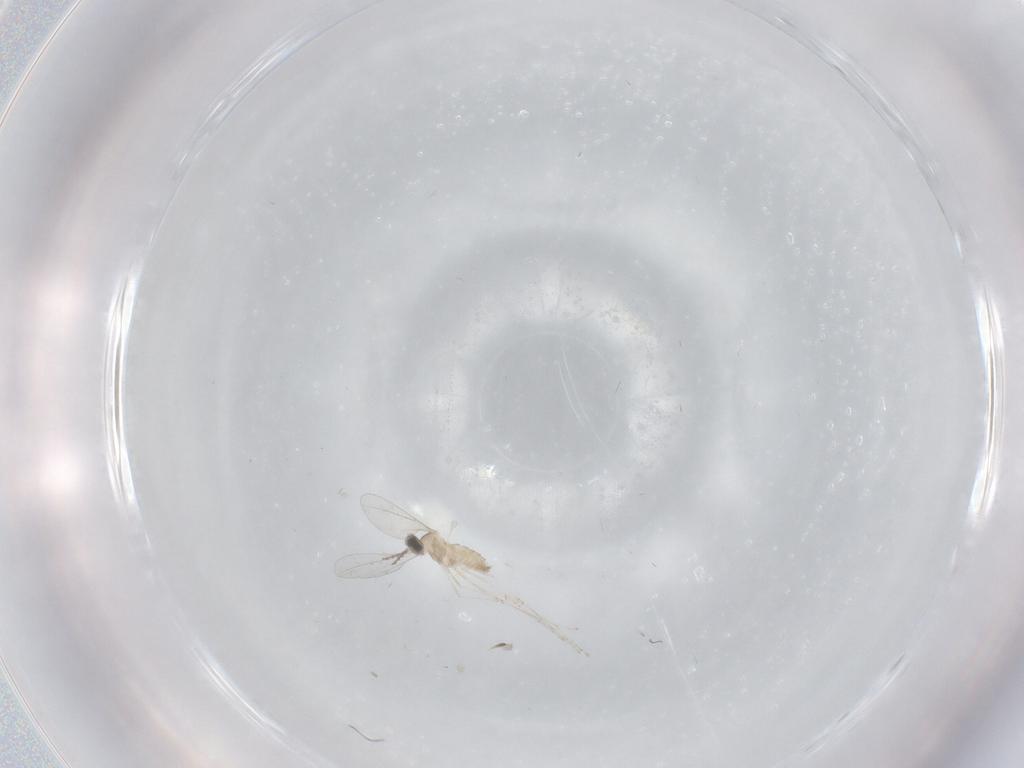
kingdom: Animalia
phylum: Arthropoda
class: Insecta
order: Diptera
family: Cecidomyiidae
